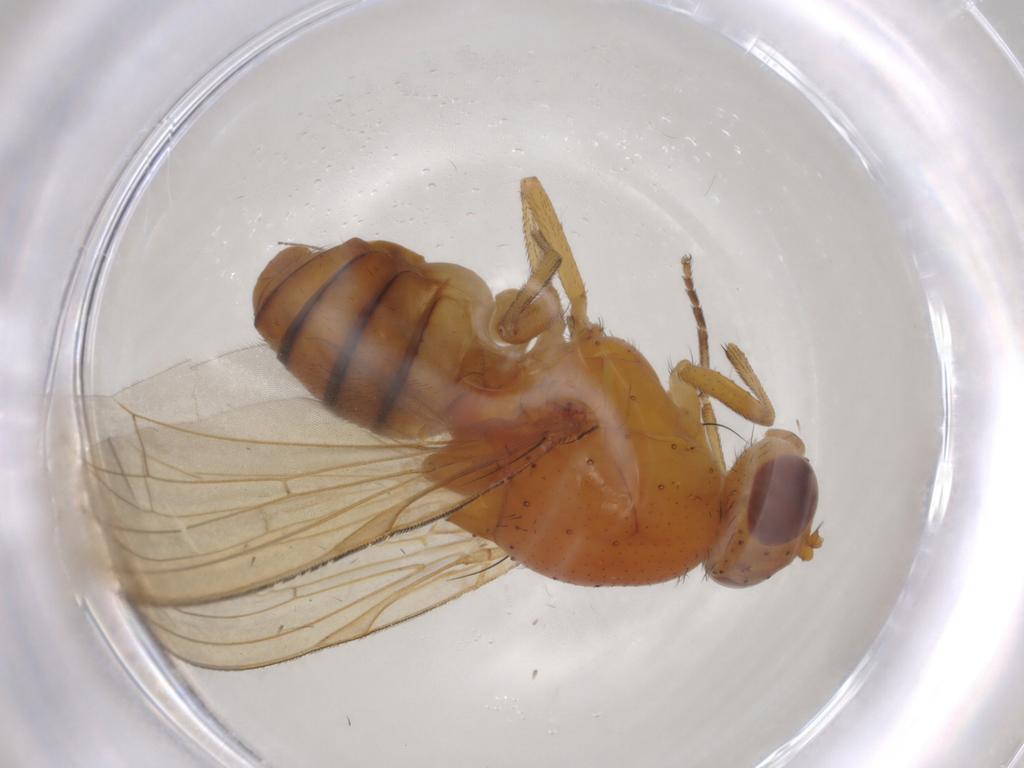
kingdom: Animalia
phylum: Arthropoda
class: Insecta
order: Diptera
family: Chironomidae
